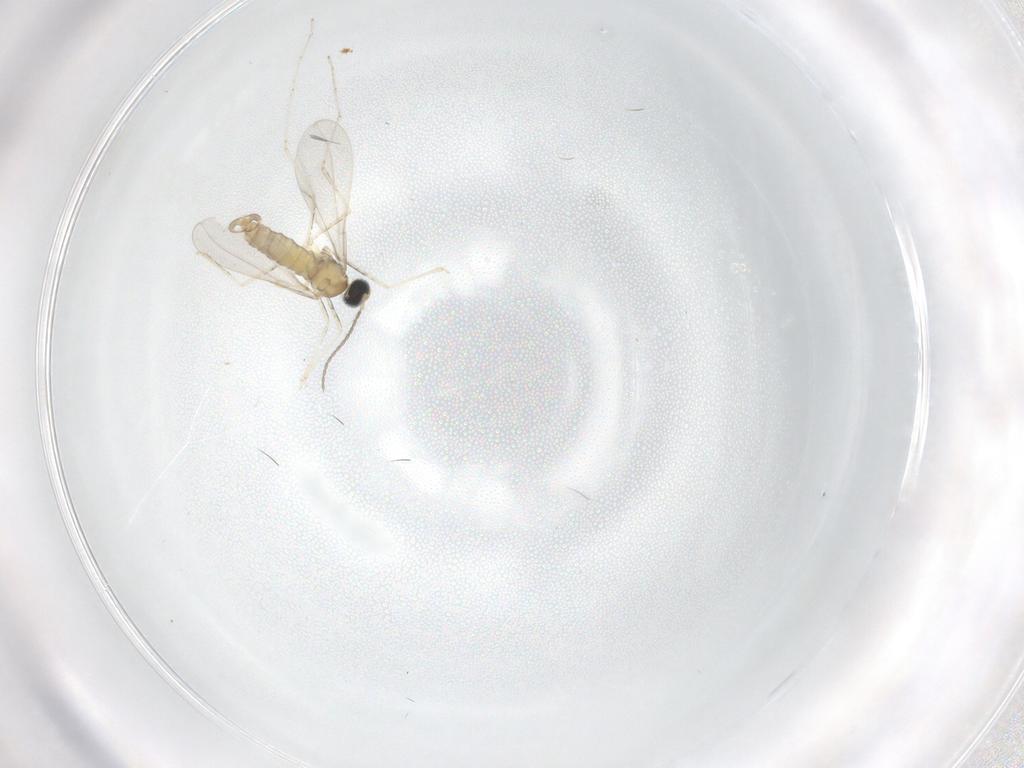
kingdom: Animalia
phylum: Arthropoda
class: Insecta
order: Diptera
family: Cecidomyiidae
